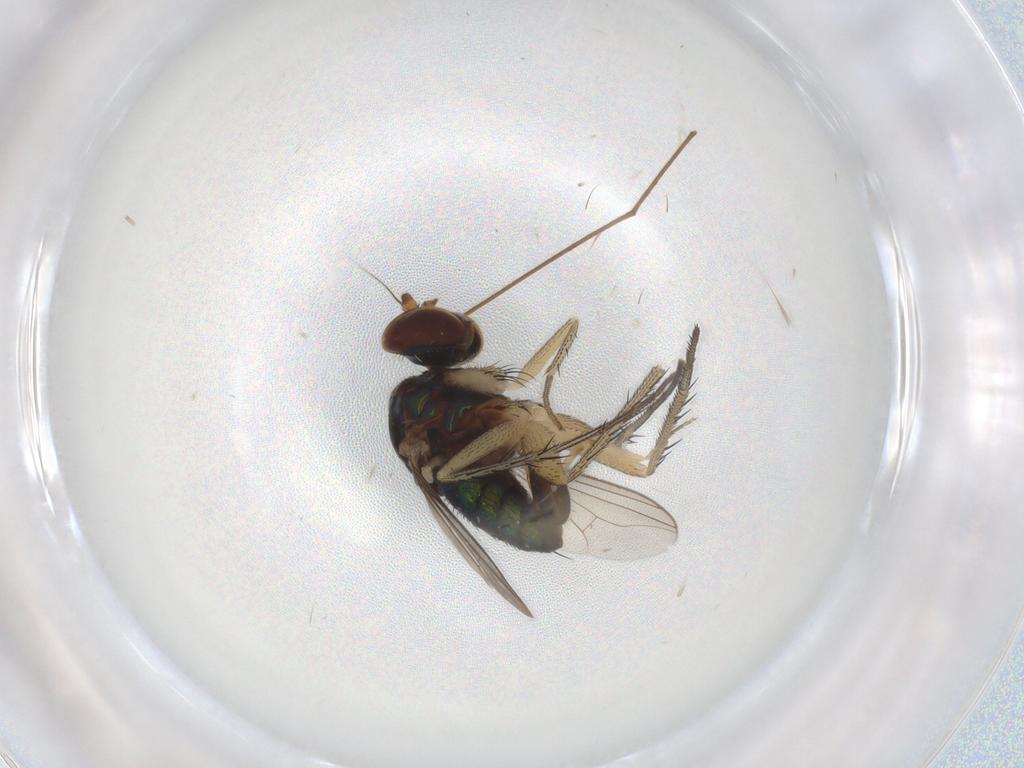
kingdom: Animalia
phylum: Arthropoda
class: Insecta
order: Diptera
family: Dolichopodidae
